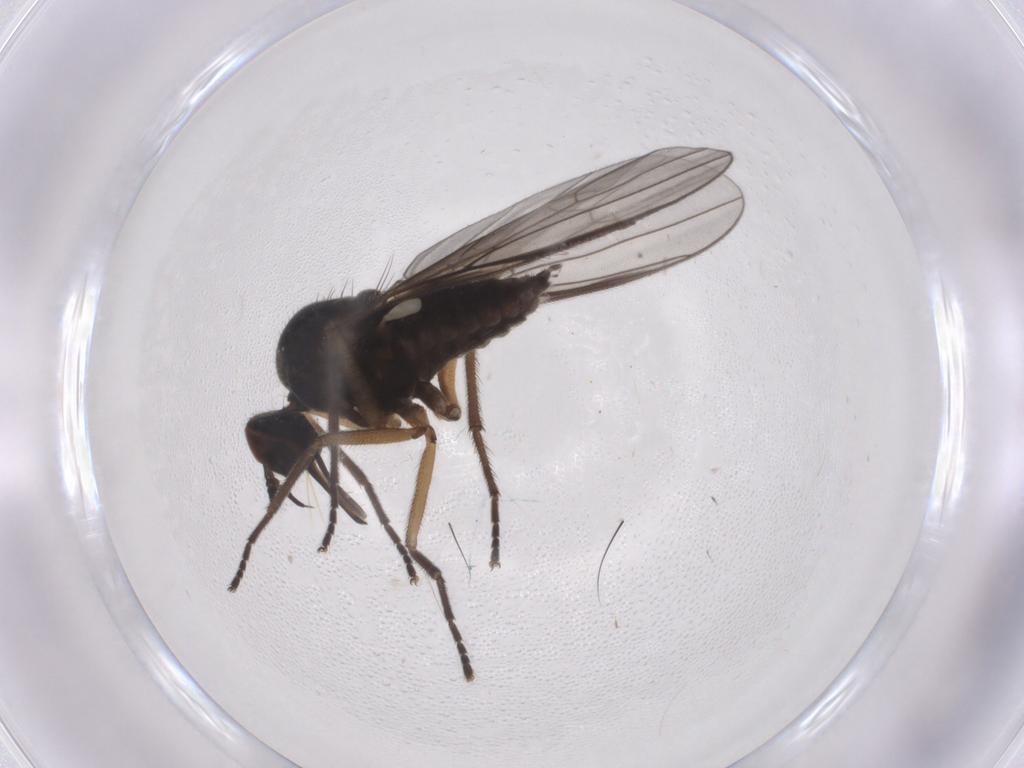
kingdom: Animalia
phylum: Arthropoda
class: Insecta
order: Diptera
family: Empididae
